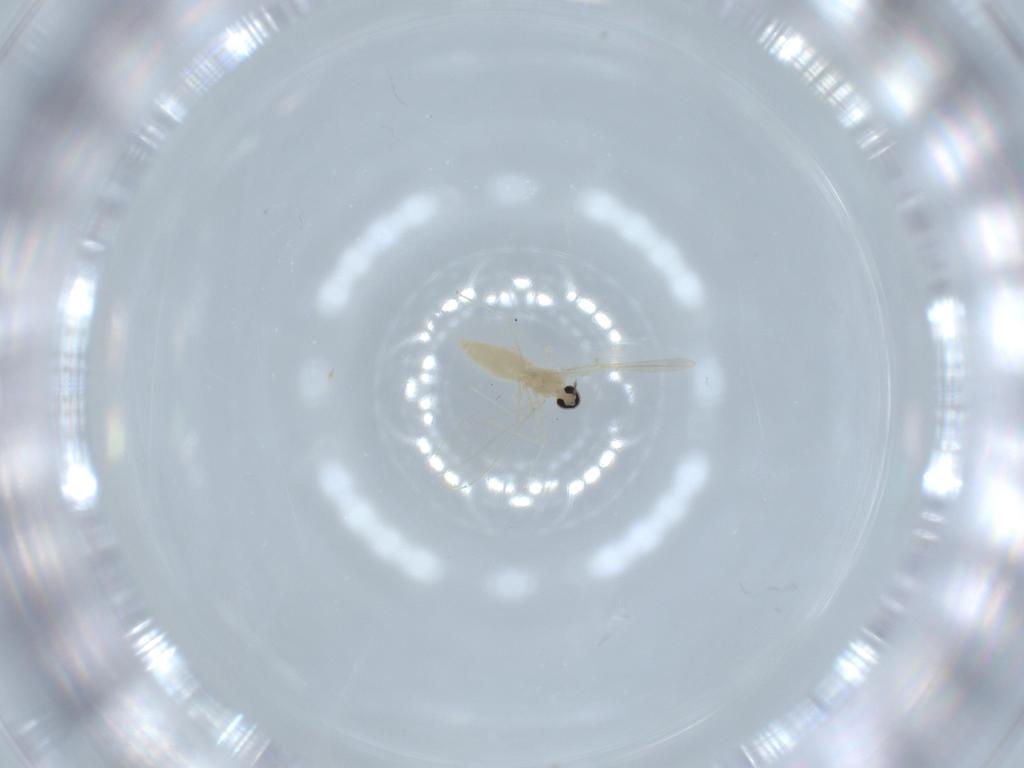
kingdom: Animalia
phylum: Arthropoda
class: Insecta
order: Diptera
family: Cecidomyiidae
